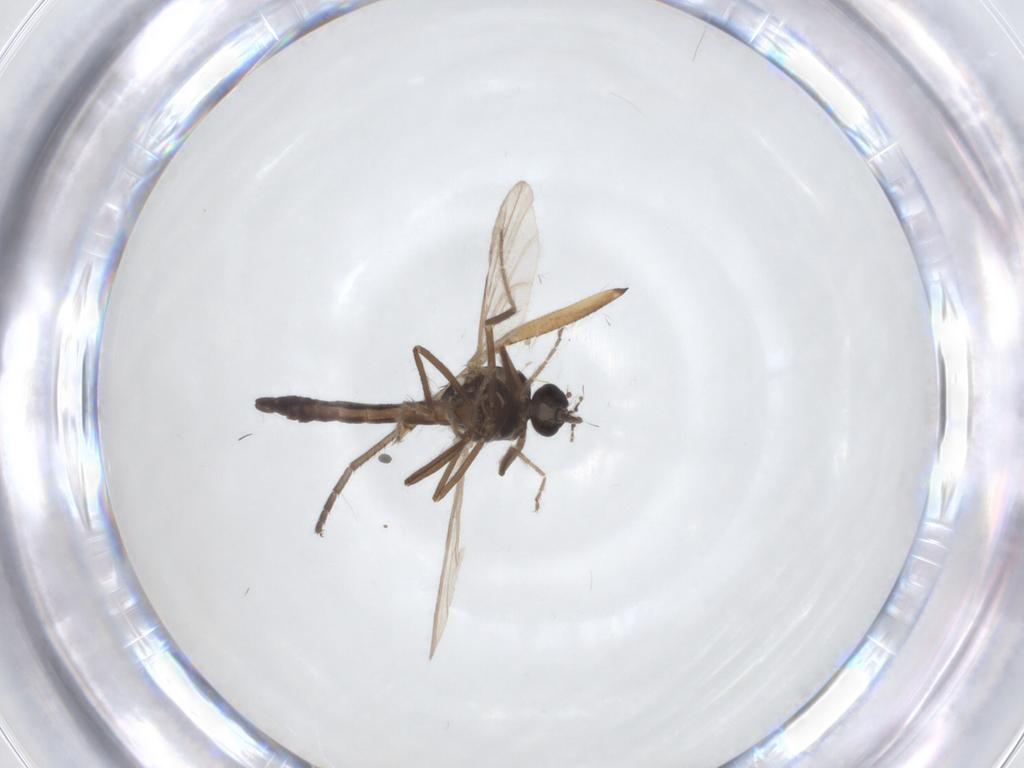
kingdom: Animalia
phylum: Arthropoda
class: Insecta
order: Diptera
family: Ceratopogonidae
